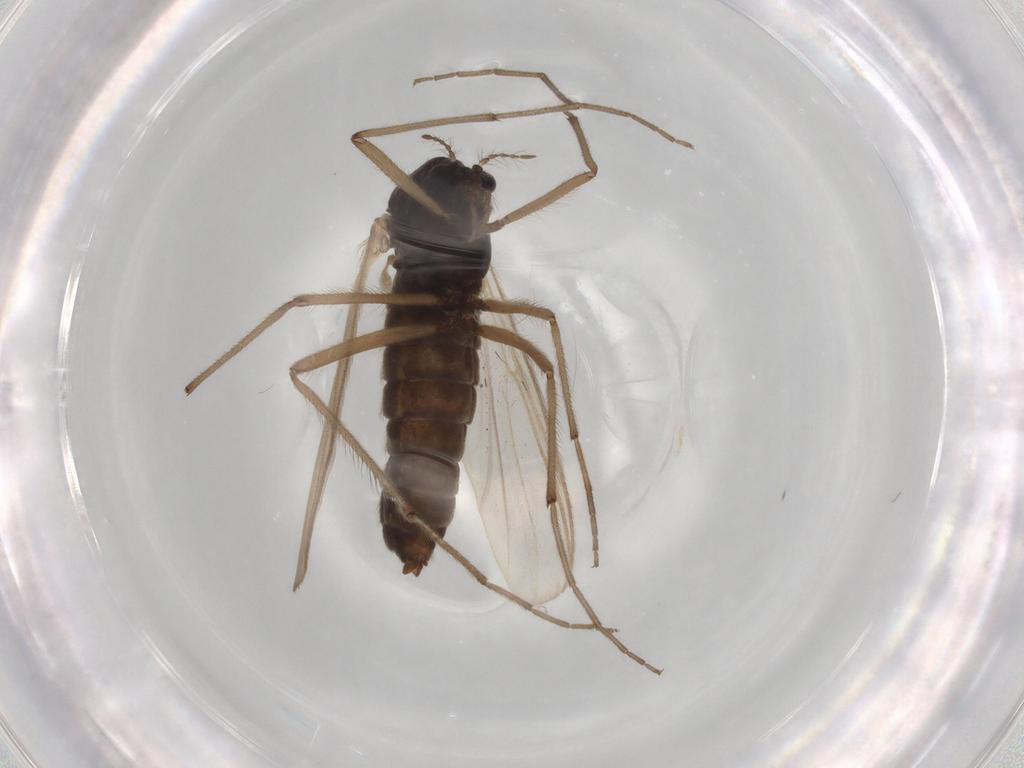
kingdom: Animalia
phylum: Arthropoda
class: Insecta
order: Diptera
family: Chironomidae
